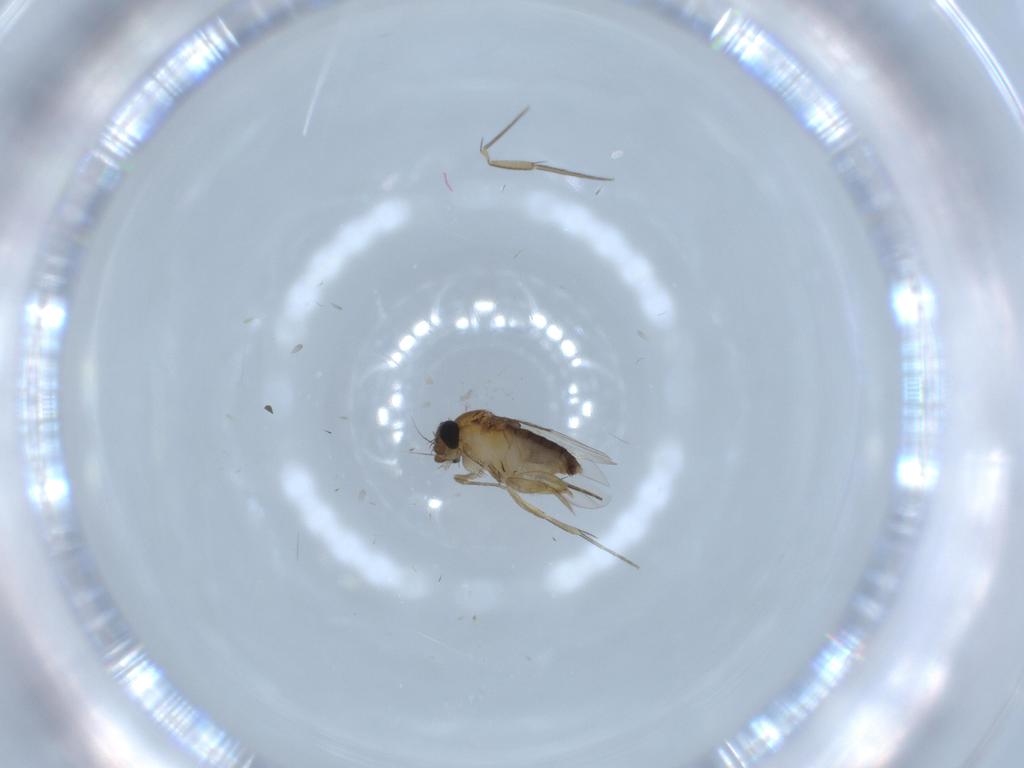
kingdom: Animalia
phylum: Arthropoda
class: Insecta
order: Diptera
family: Phoridae
